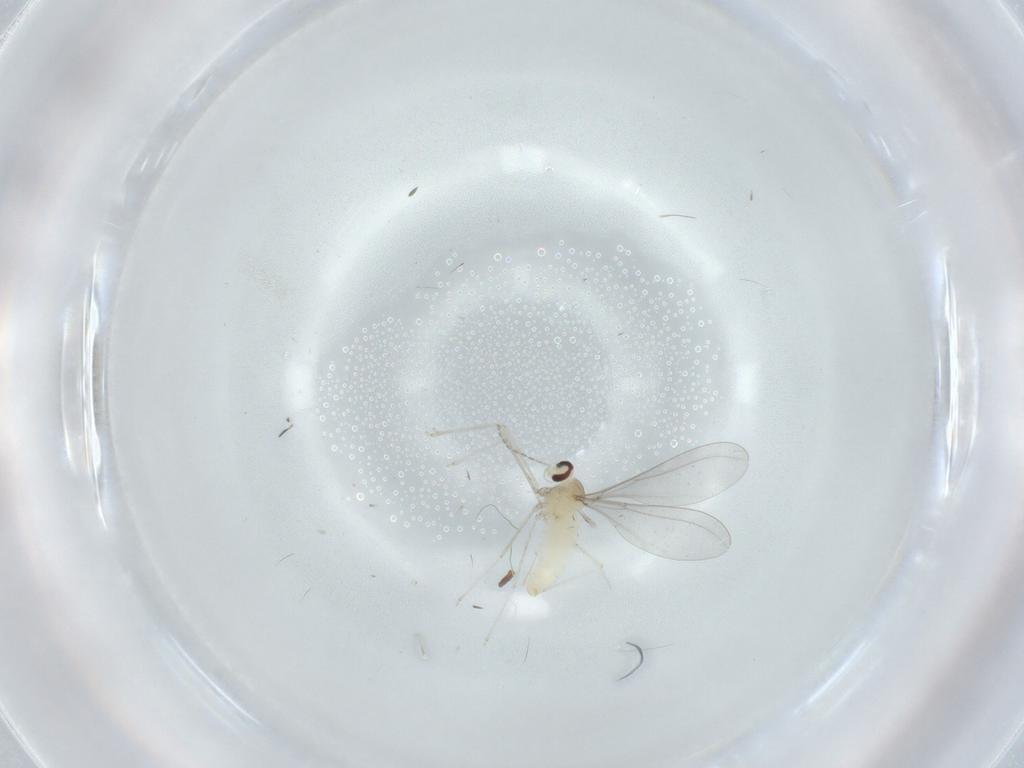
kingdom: Animalia
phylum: Arthropoda
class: Insecta
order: Diptera
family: Cecidomyiidae
